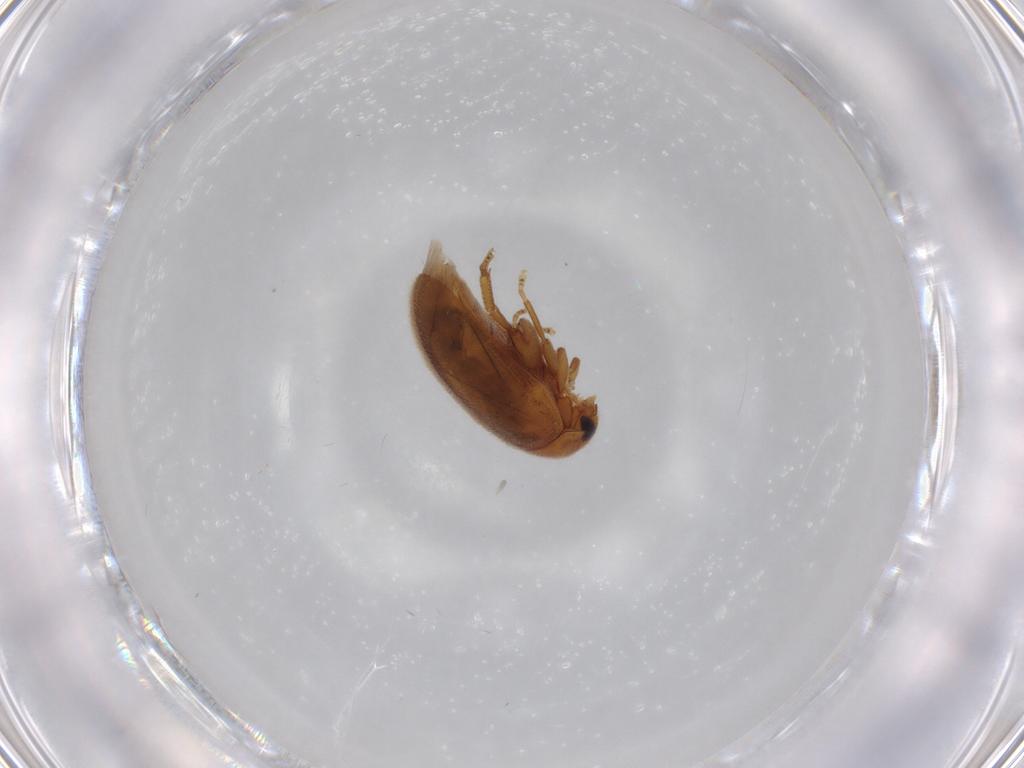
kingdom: Animalia
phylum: Arthropoda
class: Insecta
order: Coleoptera
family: Scirtidae
